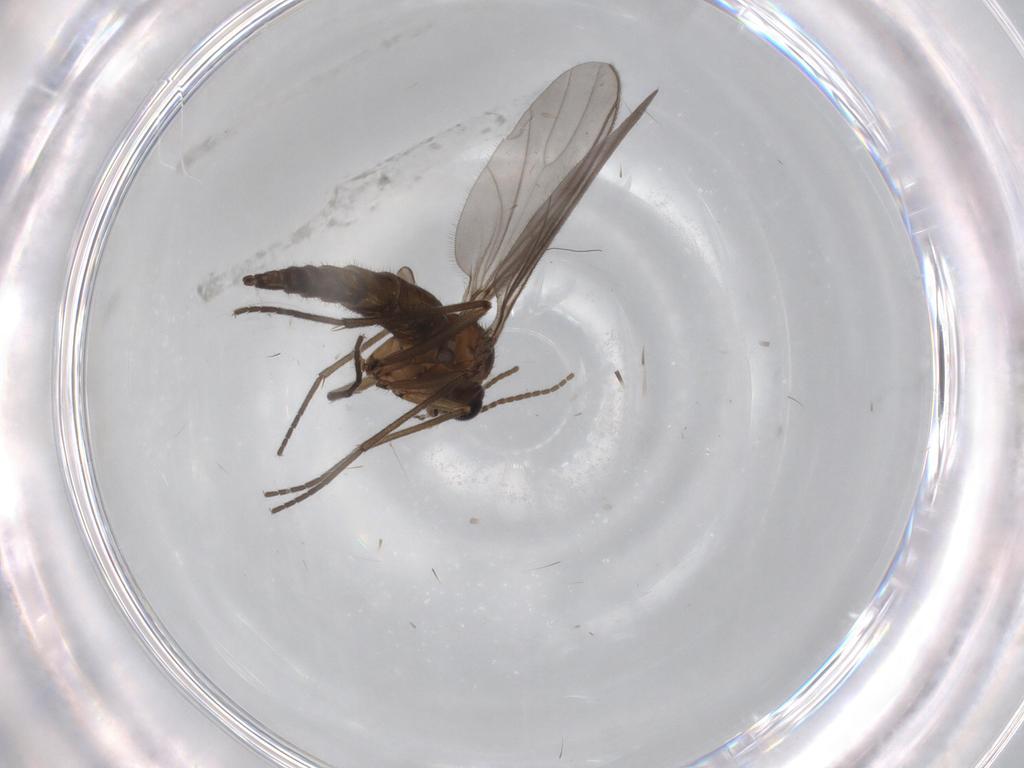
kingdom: Animalia
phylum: Arthropoda
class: Insecta
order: Diptera
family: Sciaridae
